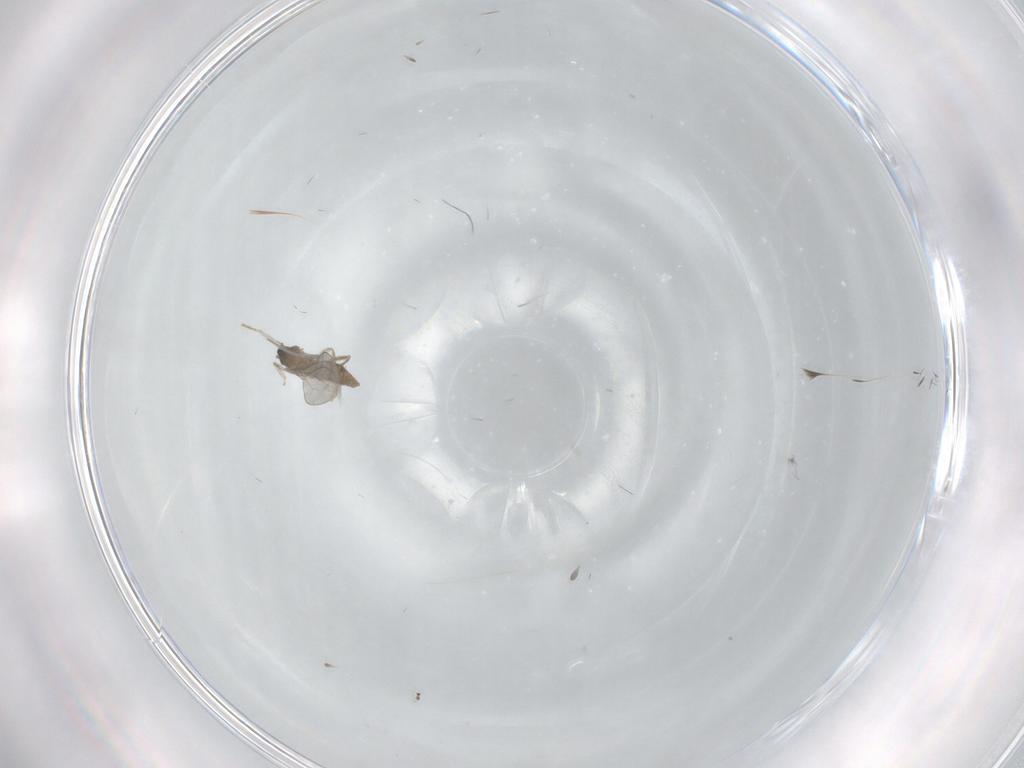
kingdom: Animalia
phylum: Arthropoda
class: Insecta
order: Diptera
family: Cecidomyiidae
